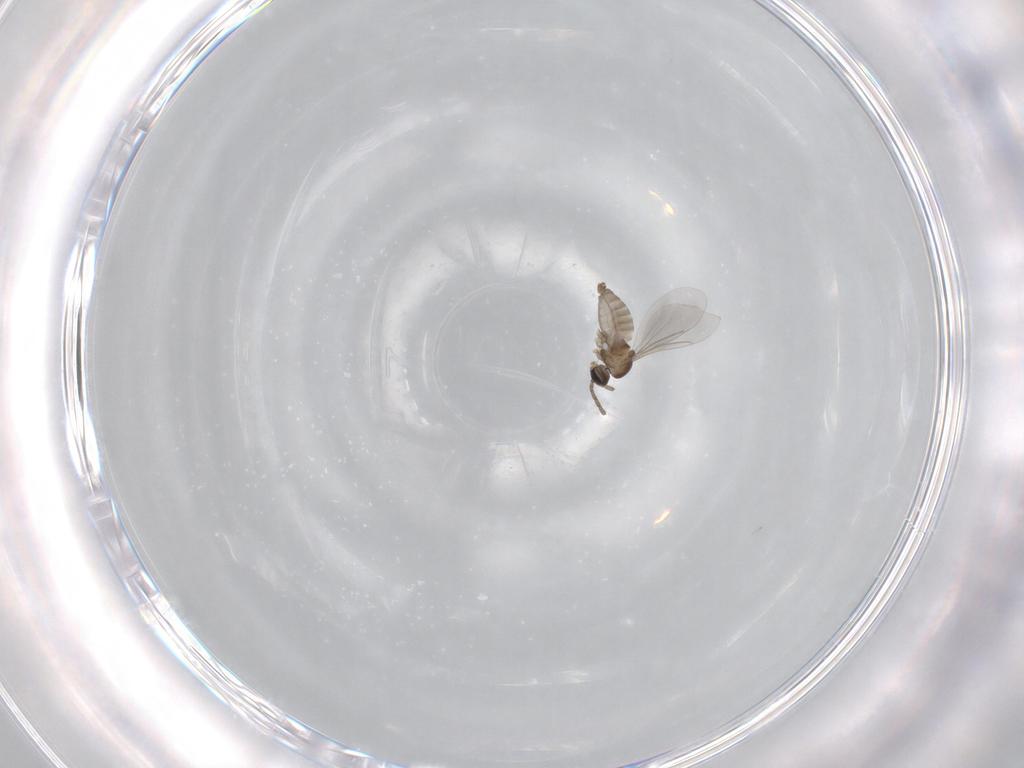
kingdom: Animalia
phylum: Arthropoda
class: Insecta
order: Diptera
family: Cecidomyiidae
